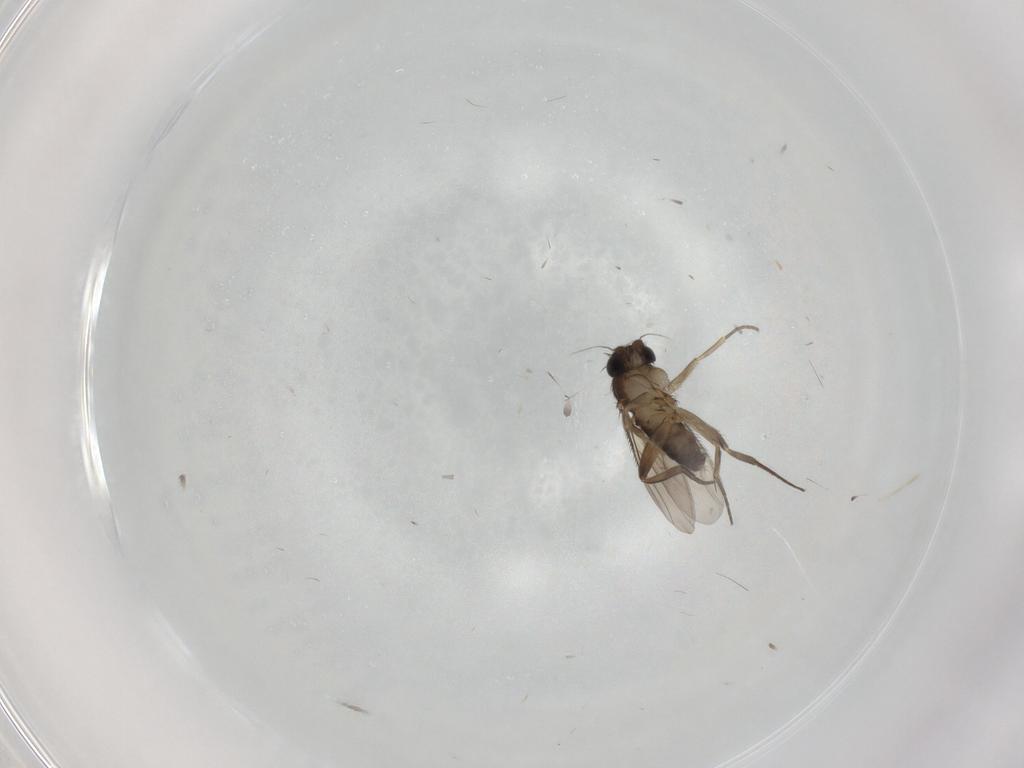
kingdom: Animalia
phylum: Arthropoda
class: Insecta
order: Diptera
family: Phoridae
